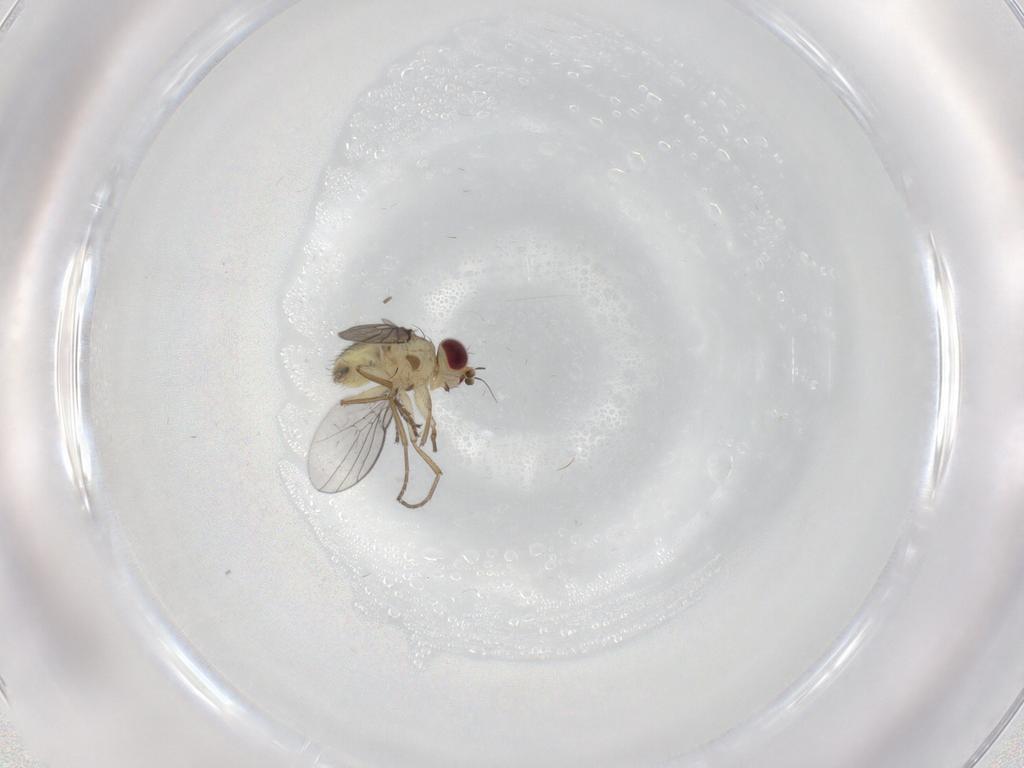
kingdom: Animalia
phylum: Arthropoda
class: Insecta
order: Diptera
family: Agromyzidae
